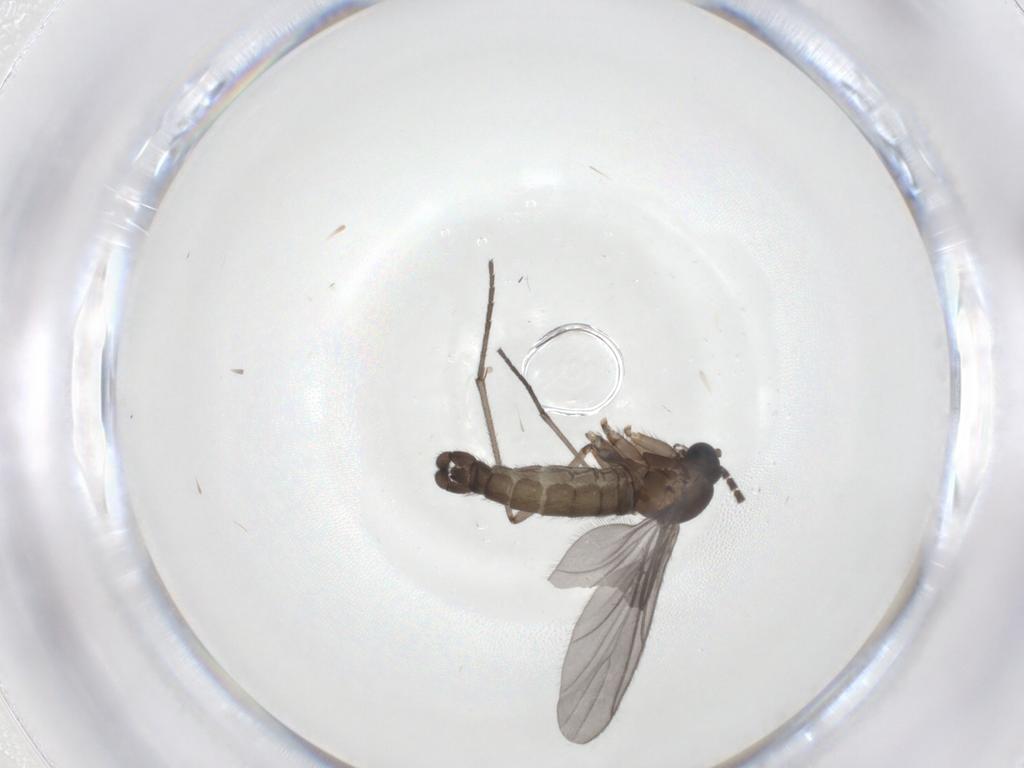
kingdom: Animalia
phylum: Arthropoda
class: Insecta
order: Diptera
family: Sciaridae
